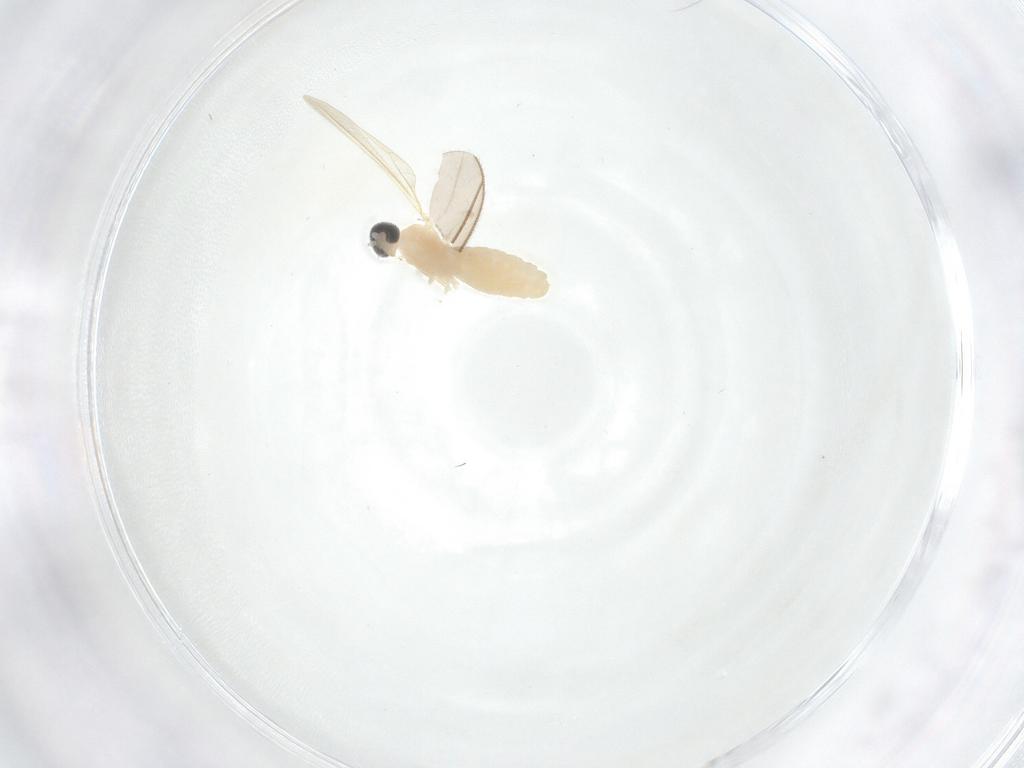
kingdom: Animalia
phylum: Arthropoda
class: Insecta
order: Diptera
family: Cecidomyiidae
